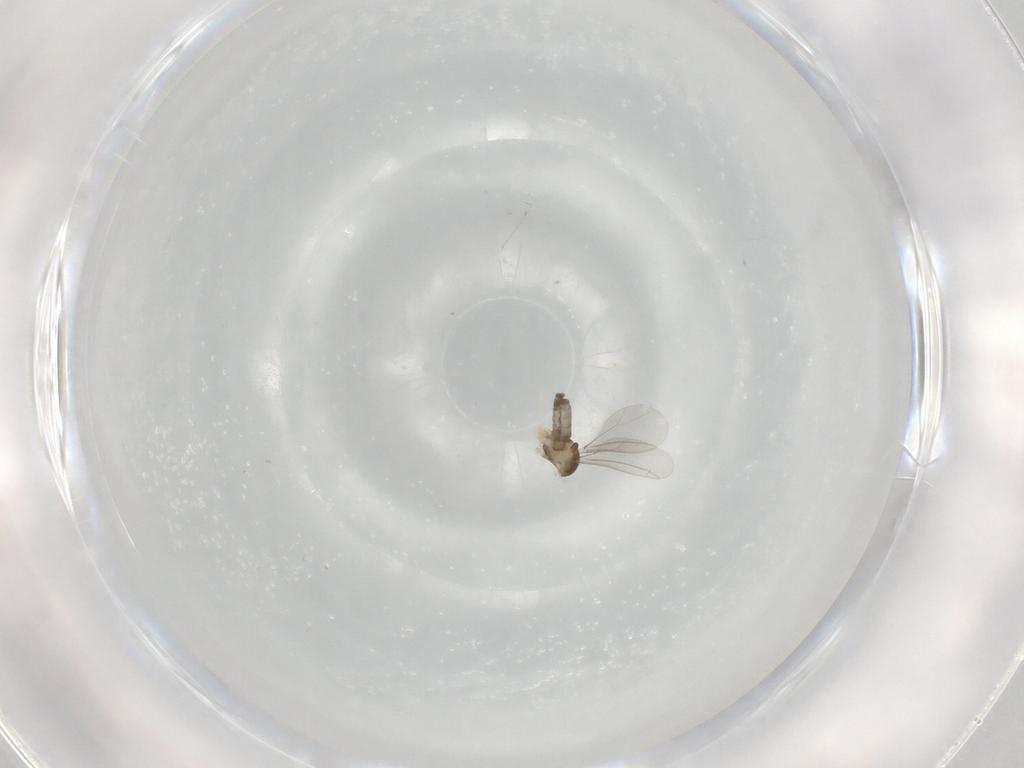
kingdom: Animalia
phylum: Arthropoda
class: Insecta
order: Diptera
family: Cecidomyiidae
